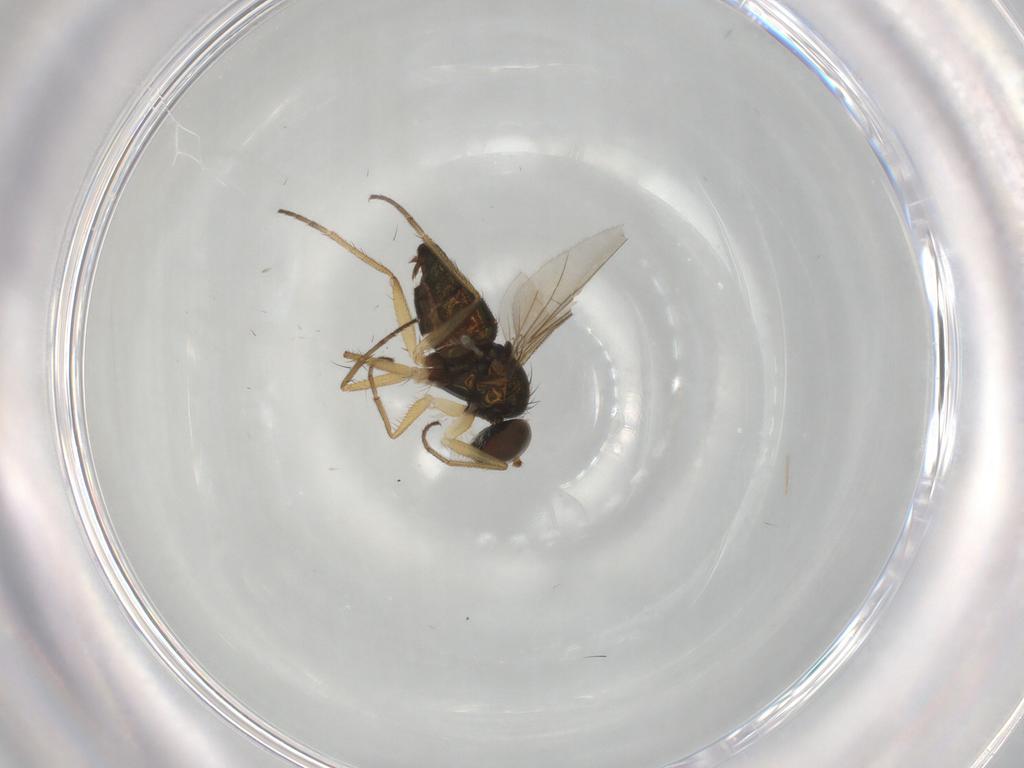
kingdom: Animalia
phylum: Arthropoda
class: Insecta
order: Diptera
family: Dolichopodidae
